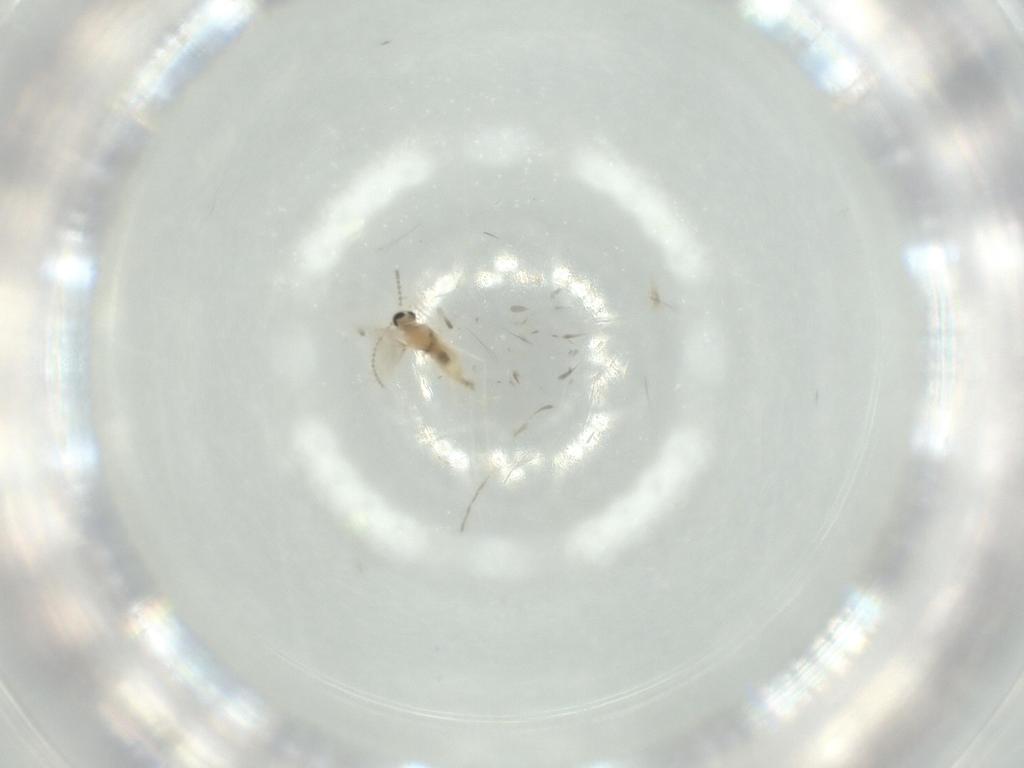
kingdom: Animalia
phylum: Arthropoda
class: Insecta
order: Diptera
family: Cecidomyiidae
